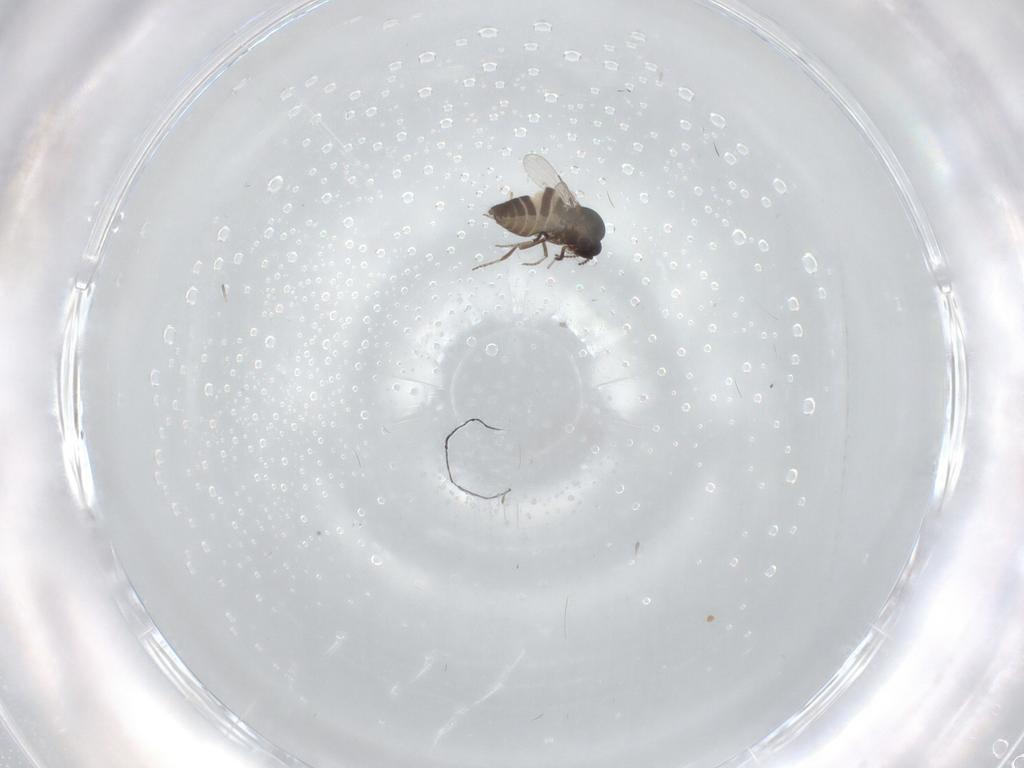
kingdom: Animalia
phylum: Arthropoda
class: Insecta
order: Diptera
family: Ceratopogonidae
